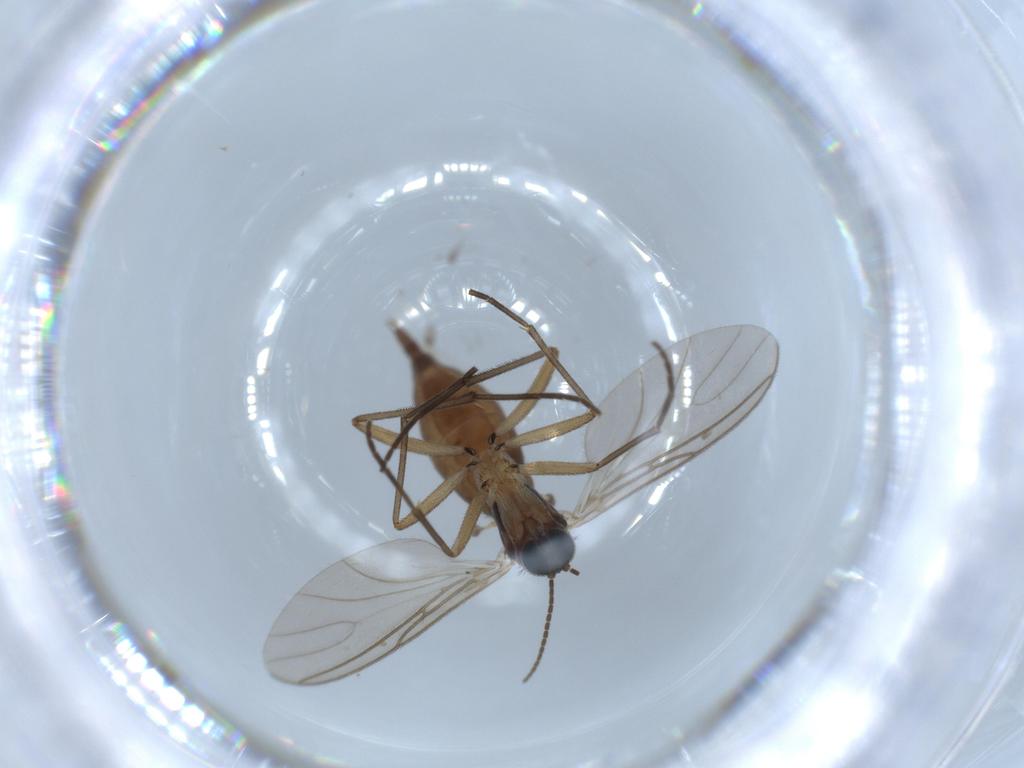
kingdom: Animalia
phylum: Arthropoda
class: Insecta
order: Diptera
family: Sciaridae
